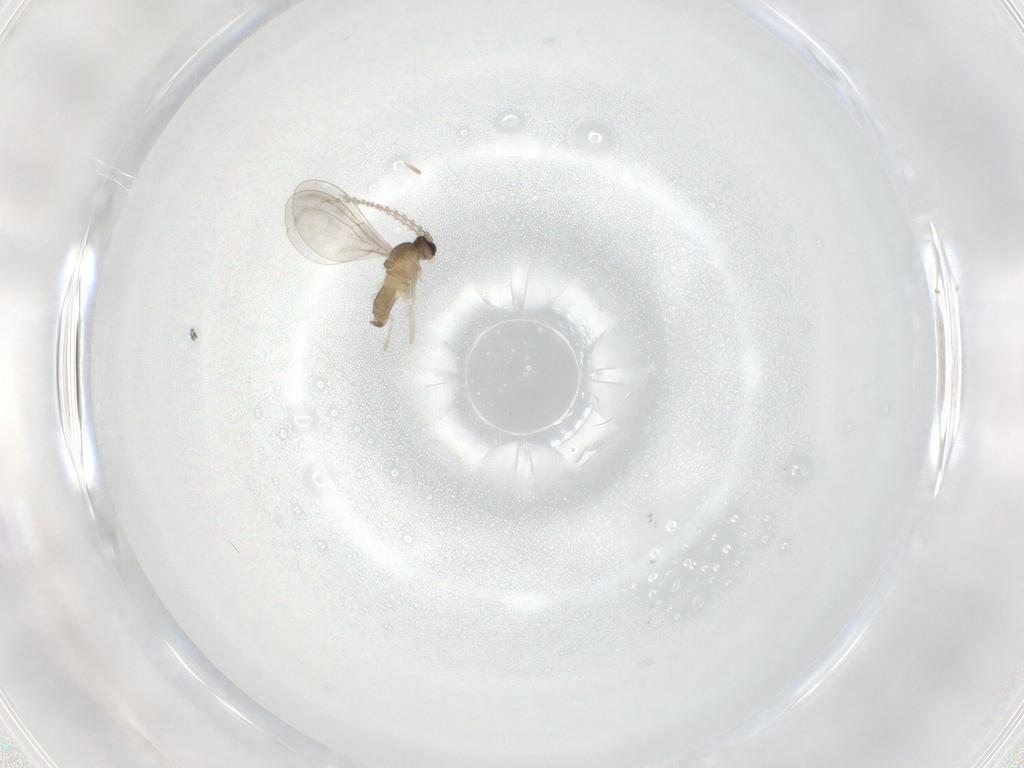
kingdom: Animalia
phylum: Arthropoda
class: Insecta
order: Diptera
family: Cecidomyiidae
